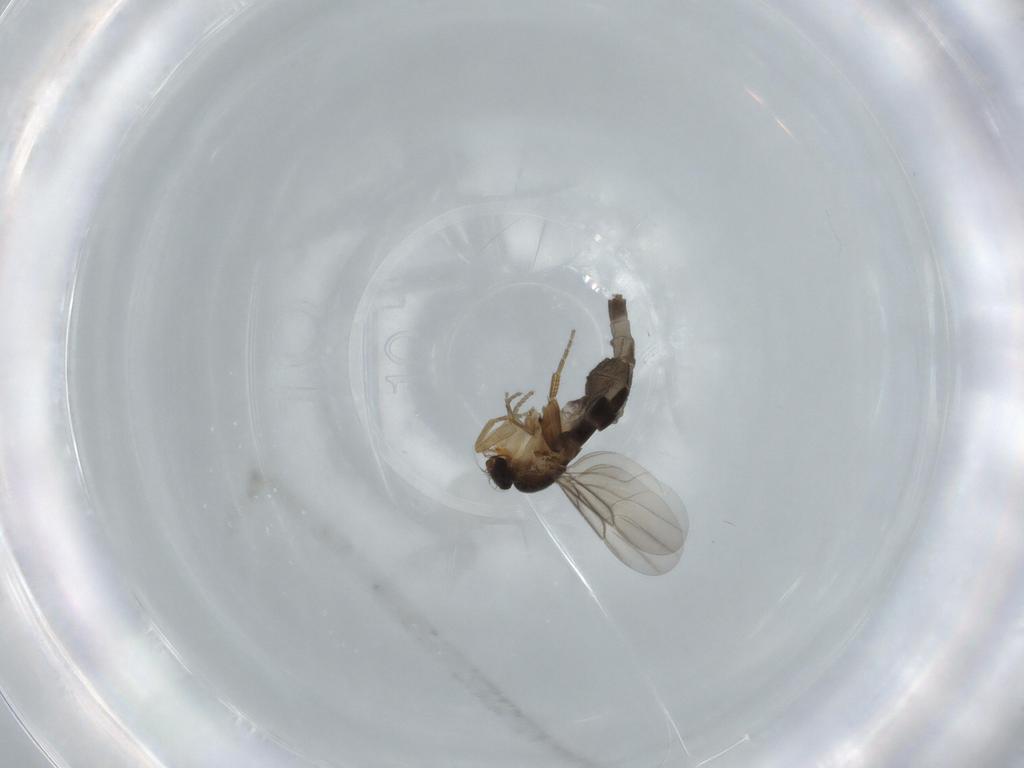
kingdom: Animalia
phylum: Arthropoda
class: Insecta
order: Diptera
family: Phoridae
